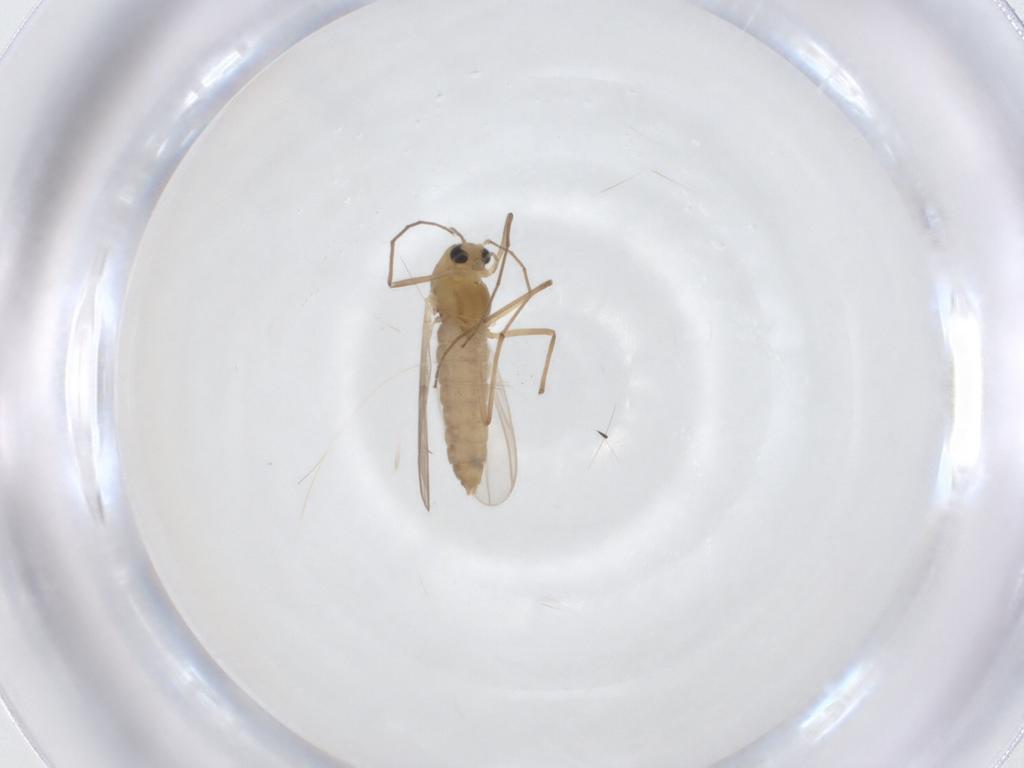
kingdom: Animalia
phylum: Arthropoda
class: Insecta
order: Diptera
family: Chironomidae
